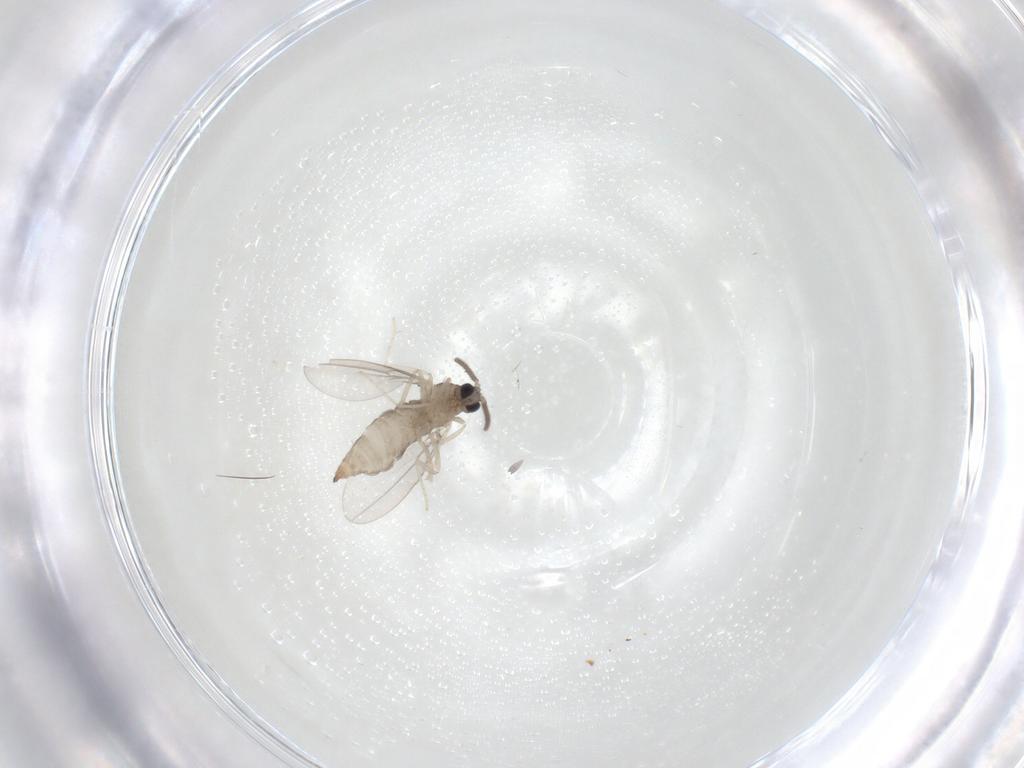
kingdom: Animalia
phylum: Arthropoda
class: Insecta
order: Diptera
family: Cecidomyiidae
